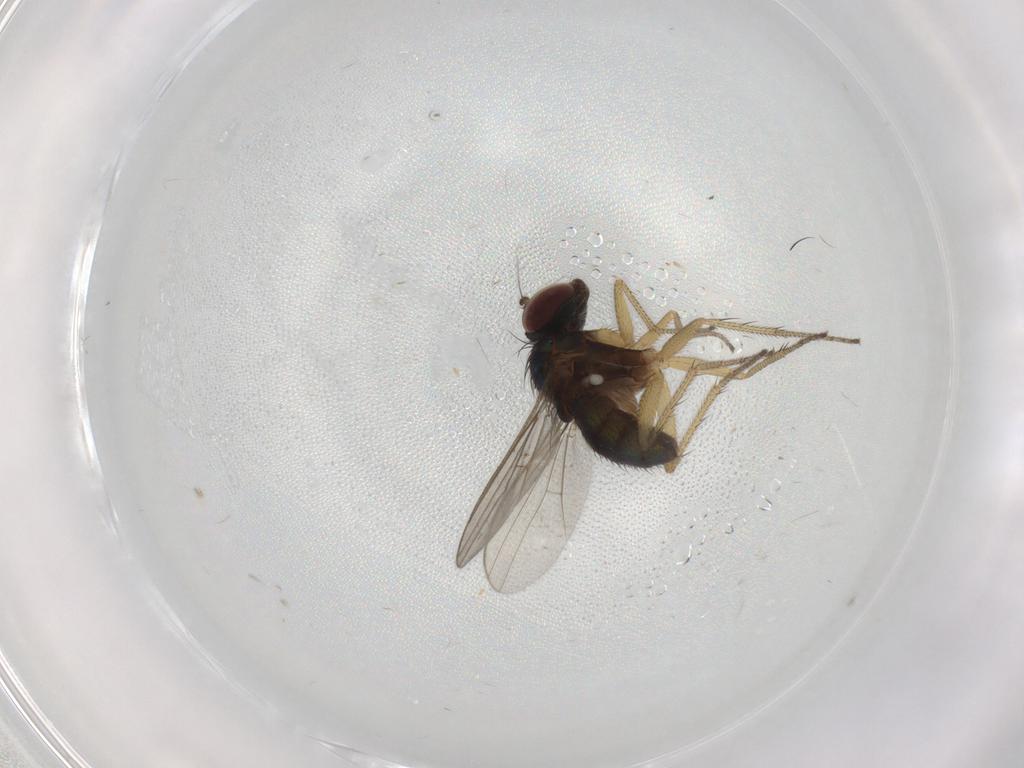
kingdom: Animalia
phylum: Arthropoda
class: Insecta
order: Diptera
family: Chironomidae
